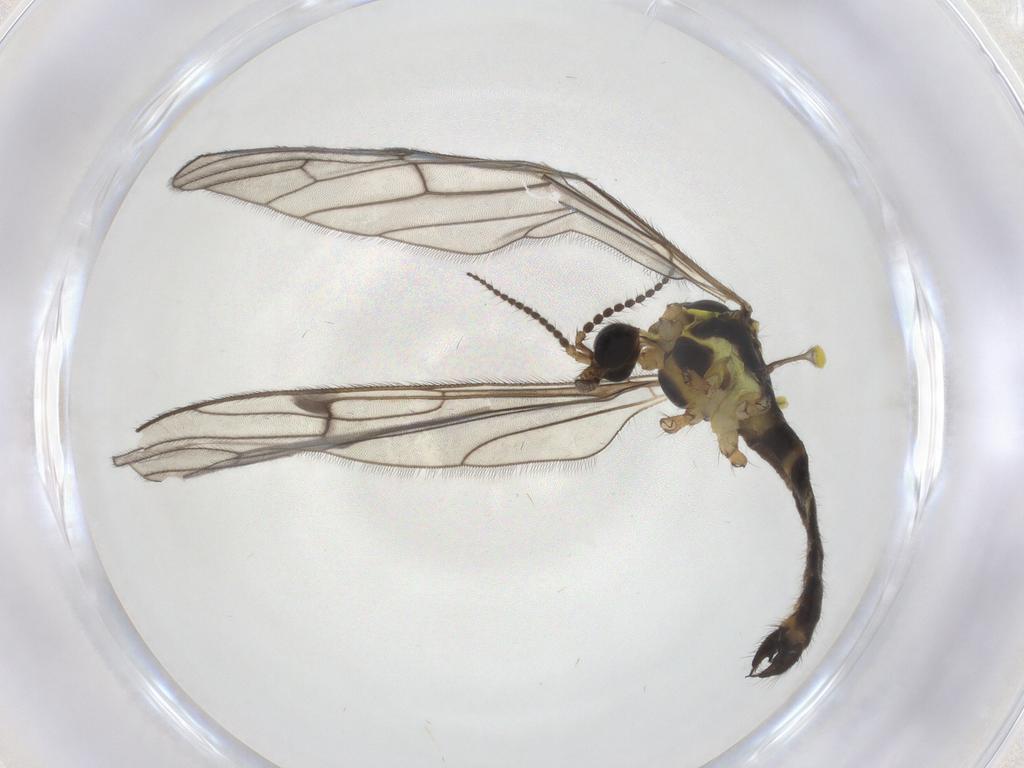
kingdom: Animalia
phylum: Arthropoda
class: Insecta
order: Diptera
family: Limoniidae
